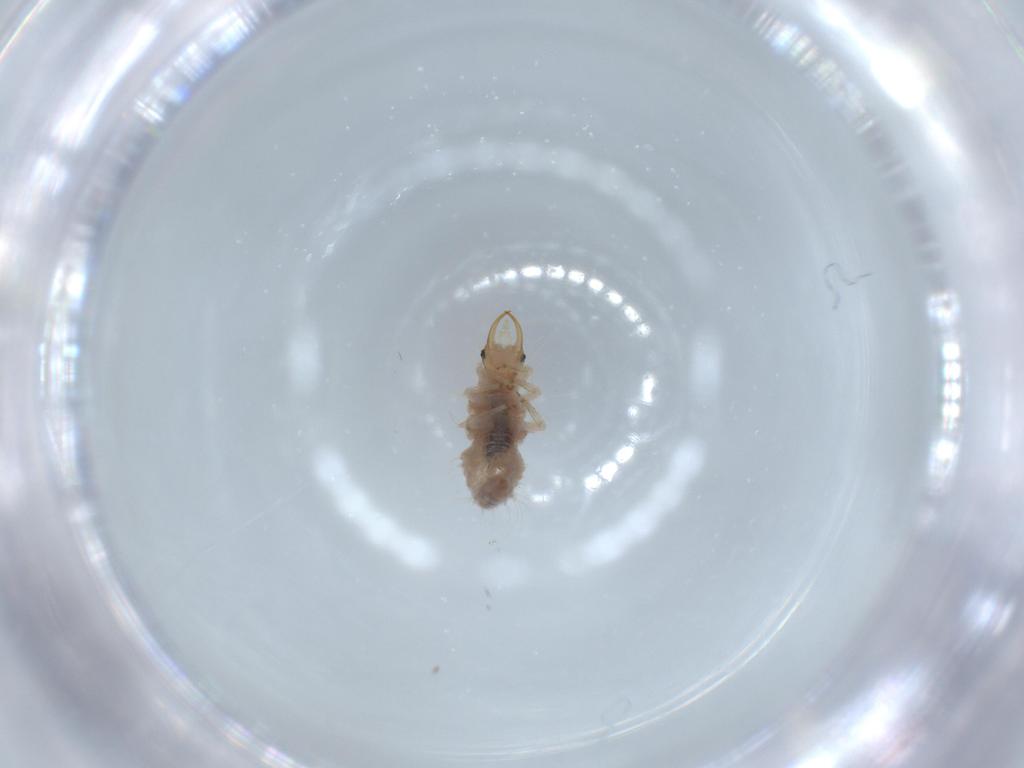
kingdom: Animalia
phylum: Arthropoda
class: Insecta
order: Neuroptera
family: Chrysopidae
